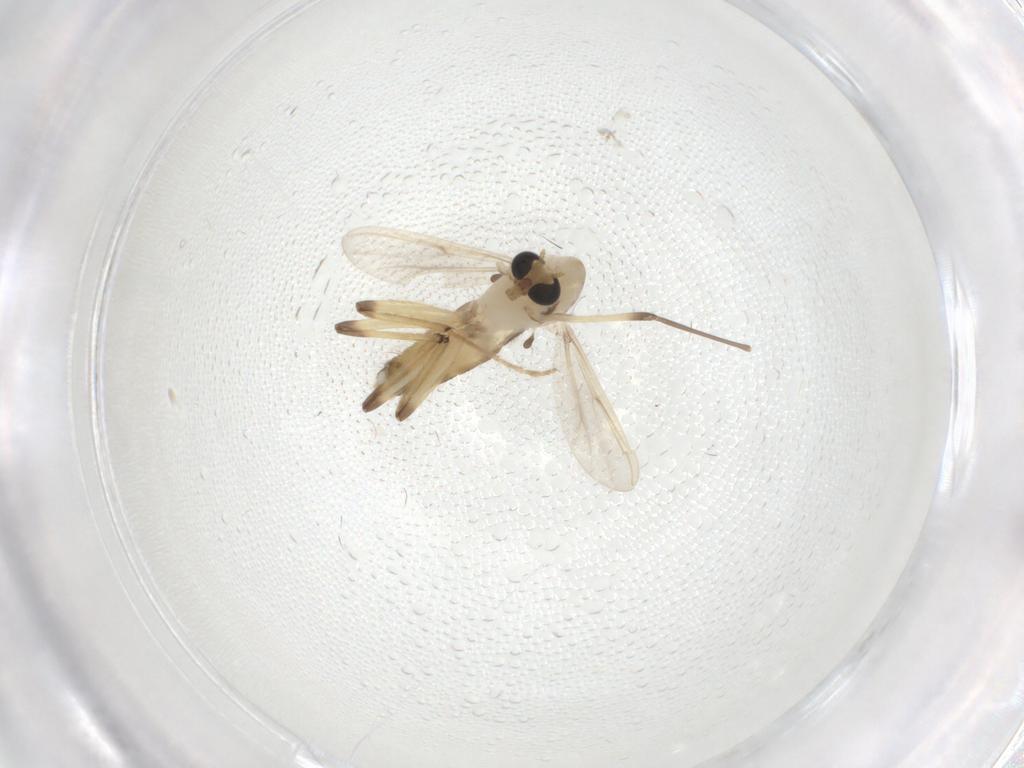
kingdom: Animalia
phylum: Arthropoda
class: Insecta
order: Diptera
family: Chironomidae
